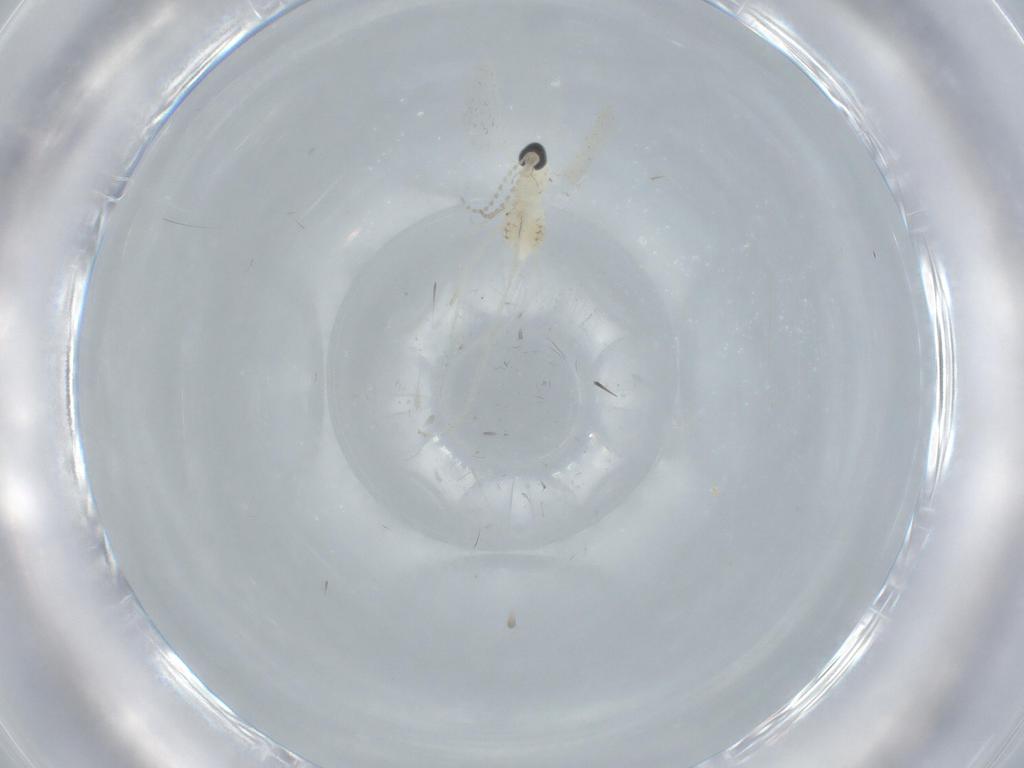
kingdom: Animalia
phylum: Arthropoda
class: Insecta
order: Diptera
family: Cecidomyiidae
